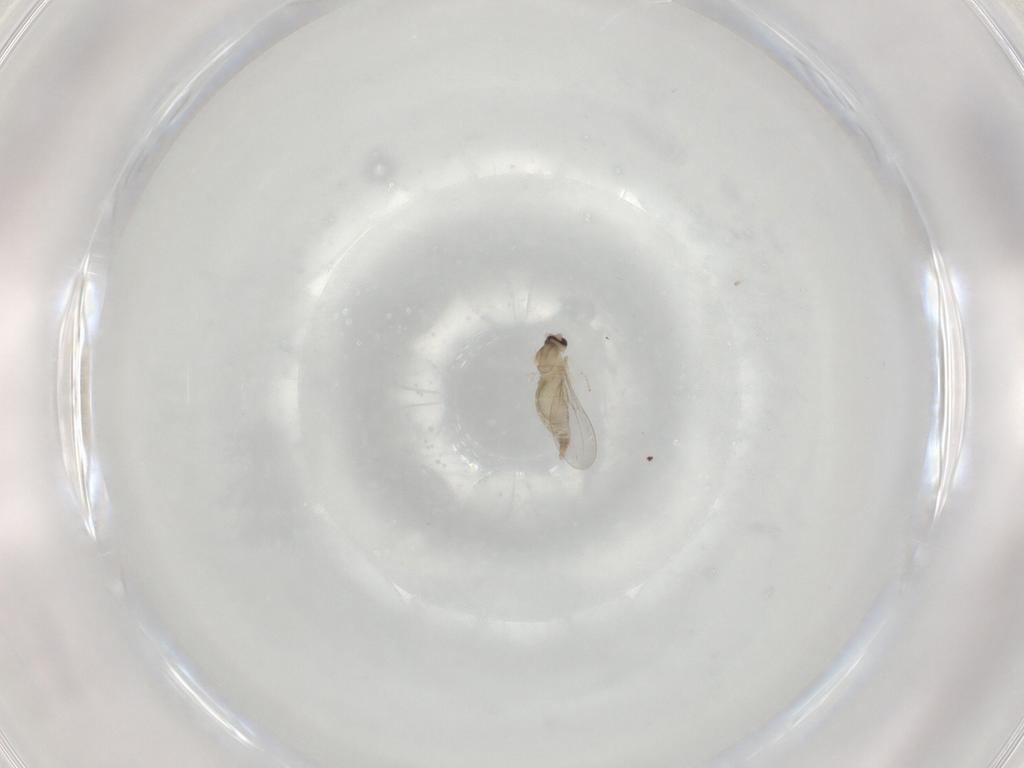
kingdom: Animalia
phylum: Arthropoda
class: Insecta
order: Diptera
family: Cecidomyiidae
